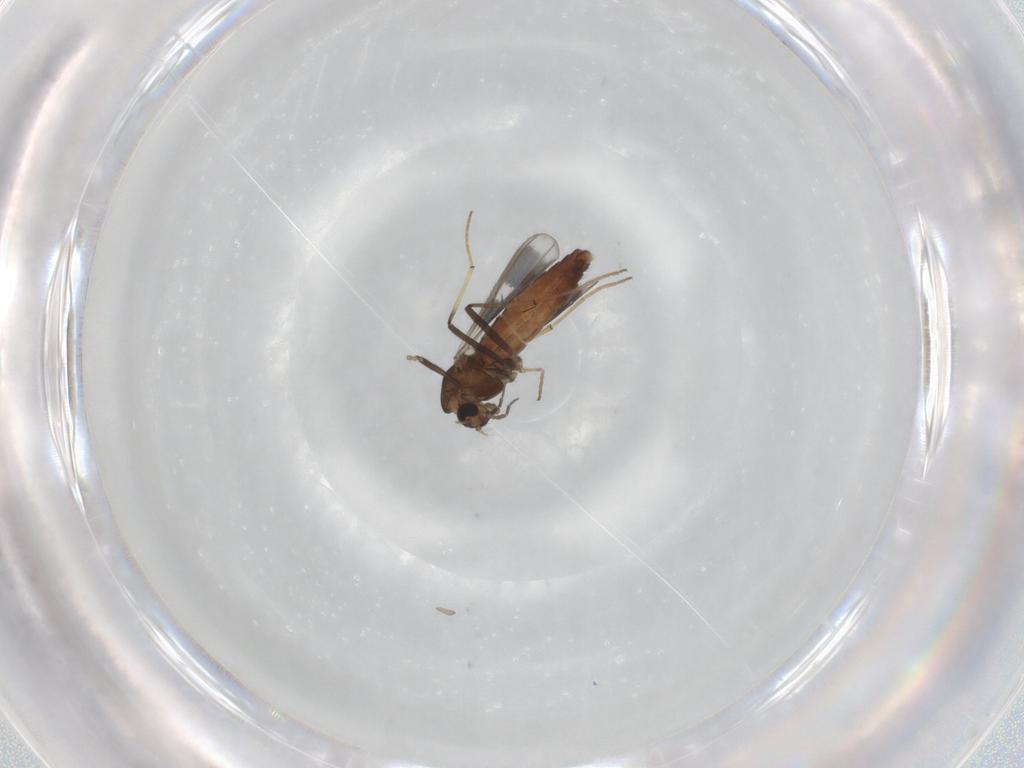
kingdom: Animalia
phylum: Arthropoda
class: Insecta
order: Diptera
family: Chironomidae
